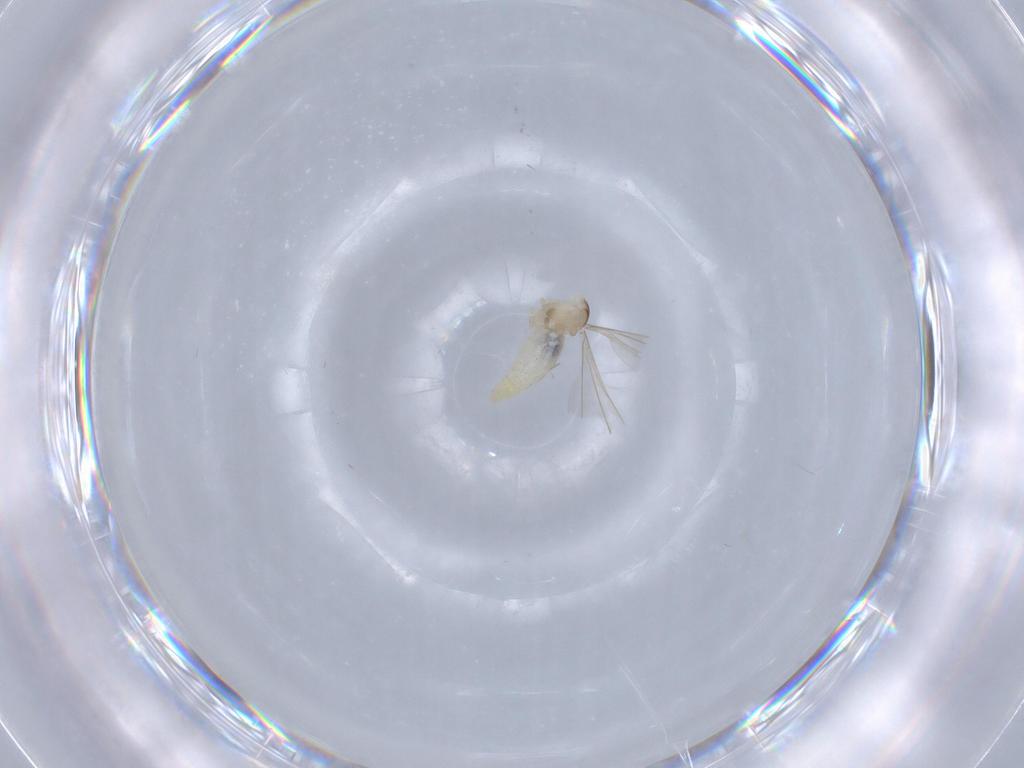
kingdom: Animalia
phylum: Arthropoda
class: Insecta
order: Diptera
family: Cecidomyiidae
